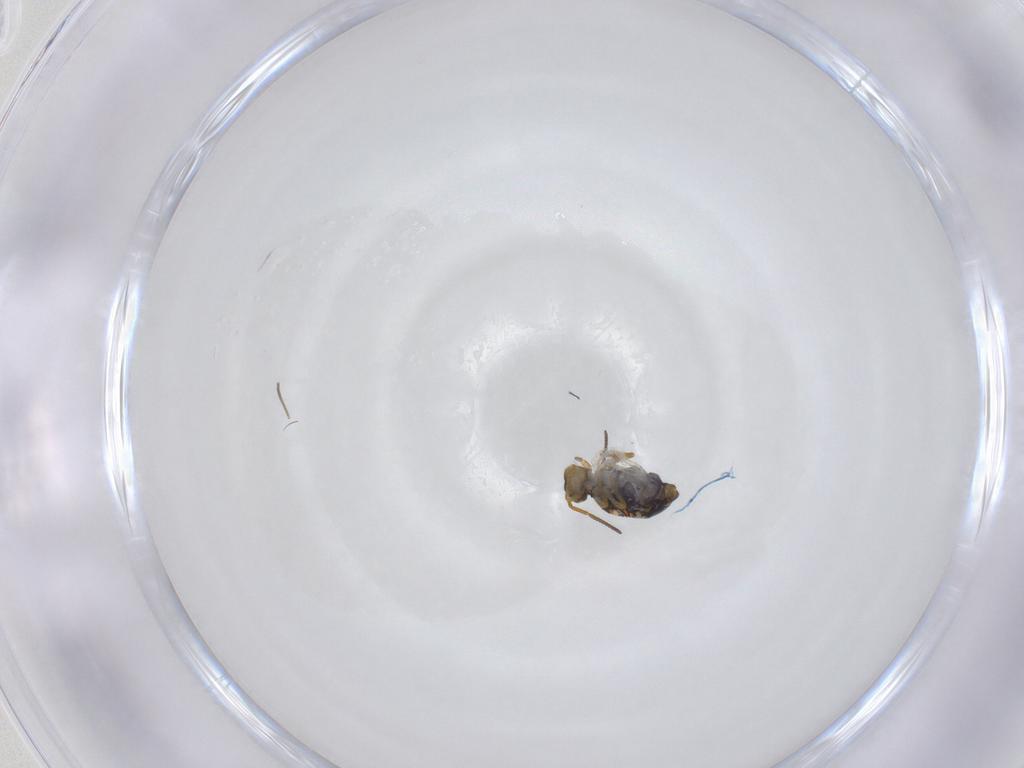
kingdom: Animalia
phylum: Arthropoda
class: Collembola
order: Symphypleona
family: Katiannidae
